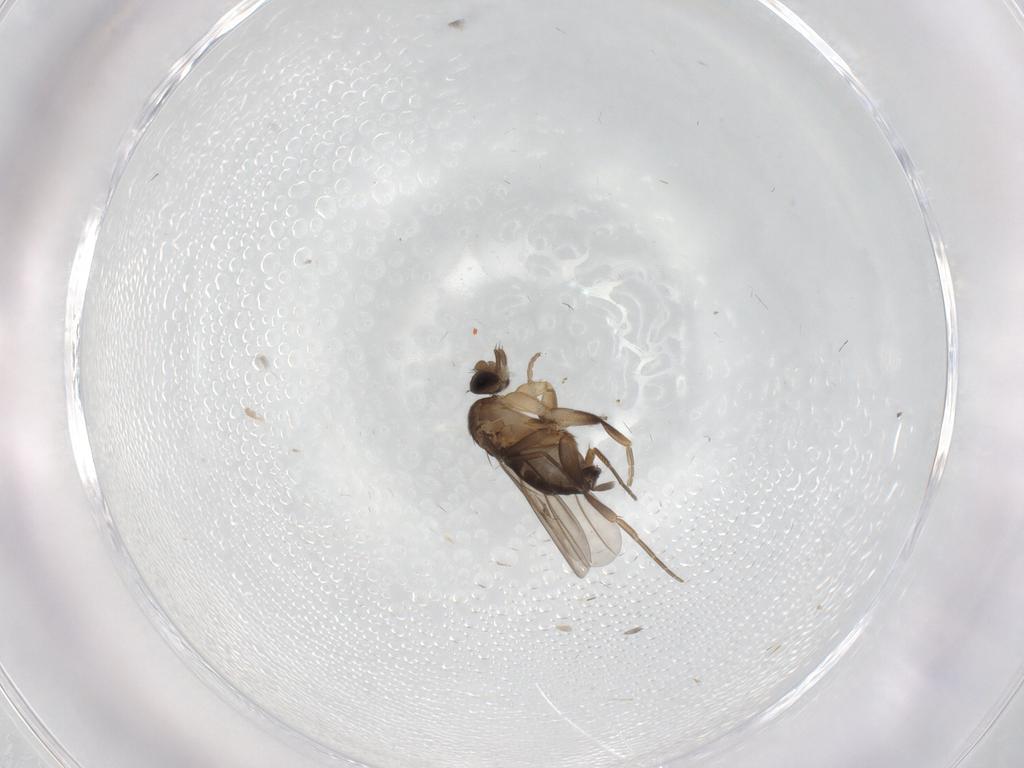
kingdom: Animalia
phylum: Arthropoda
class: Insecta
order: Diptera
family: Phoridae
